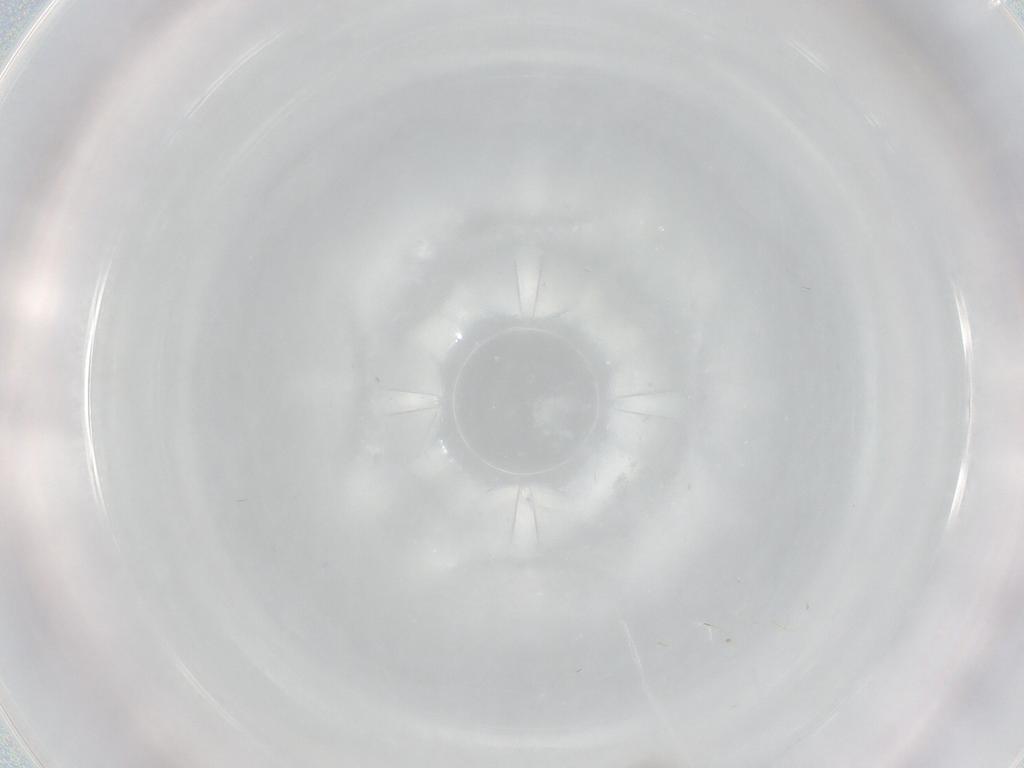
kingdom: Animalia
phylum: Arthropoda
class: Insecta
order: Diptera
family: Chironomidae
